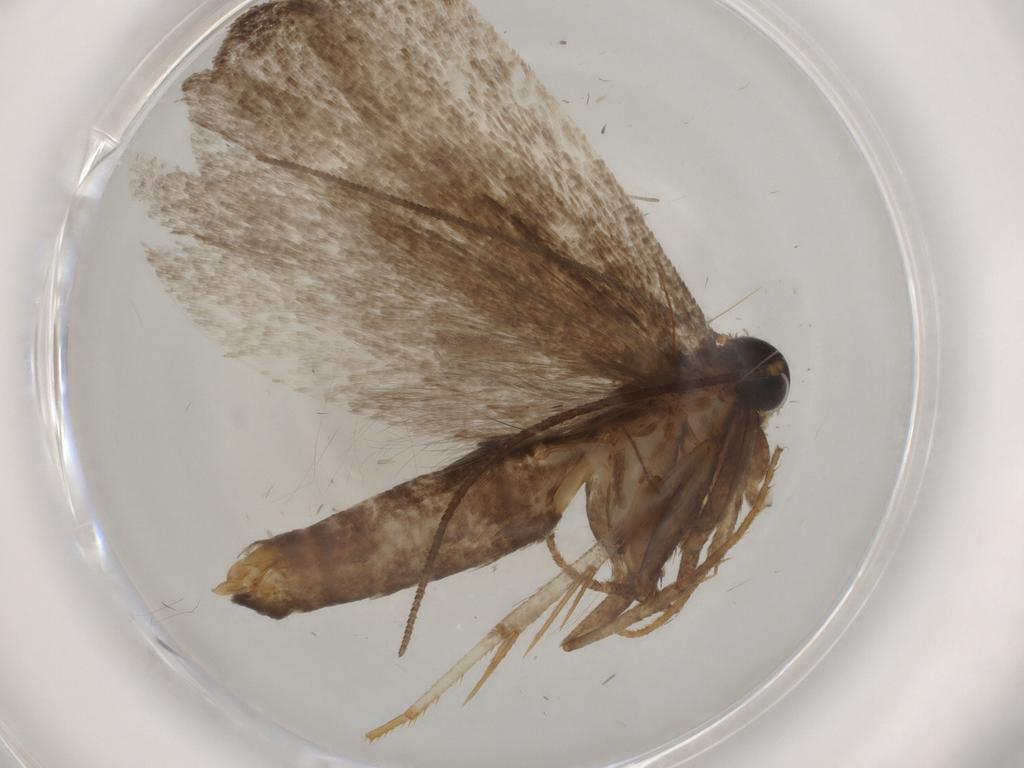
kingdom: Animalia
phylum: Arthropoda
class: Insecta
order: Lepidoptera
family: Gelechiidae
